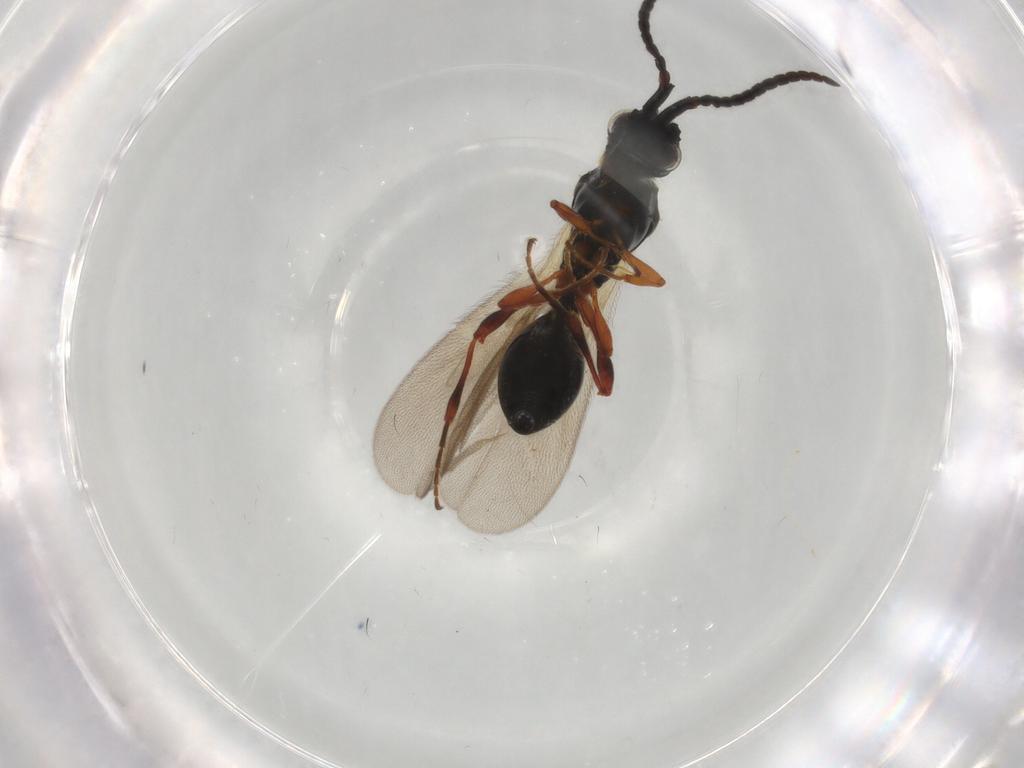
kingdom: Animalia
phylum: Arthropoda
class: Insecta
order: Hymenoptera
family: Diapriidae
